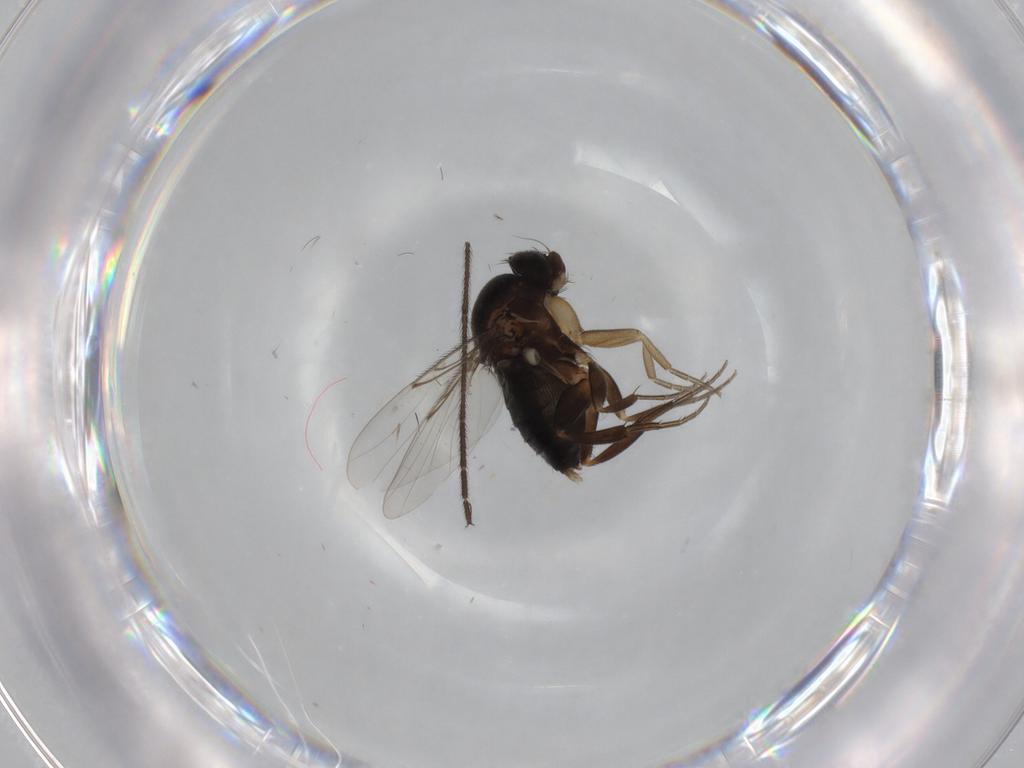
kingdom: Animalia
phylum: Arthropoda
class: Insecta
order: Diptera
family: Phoridae
